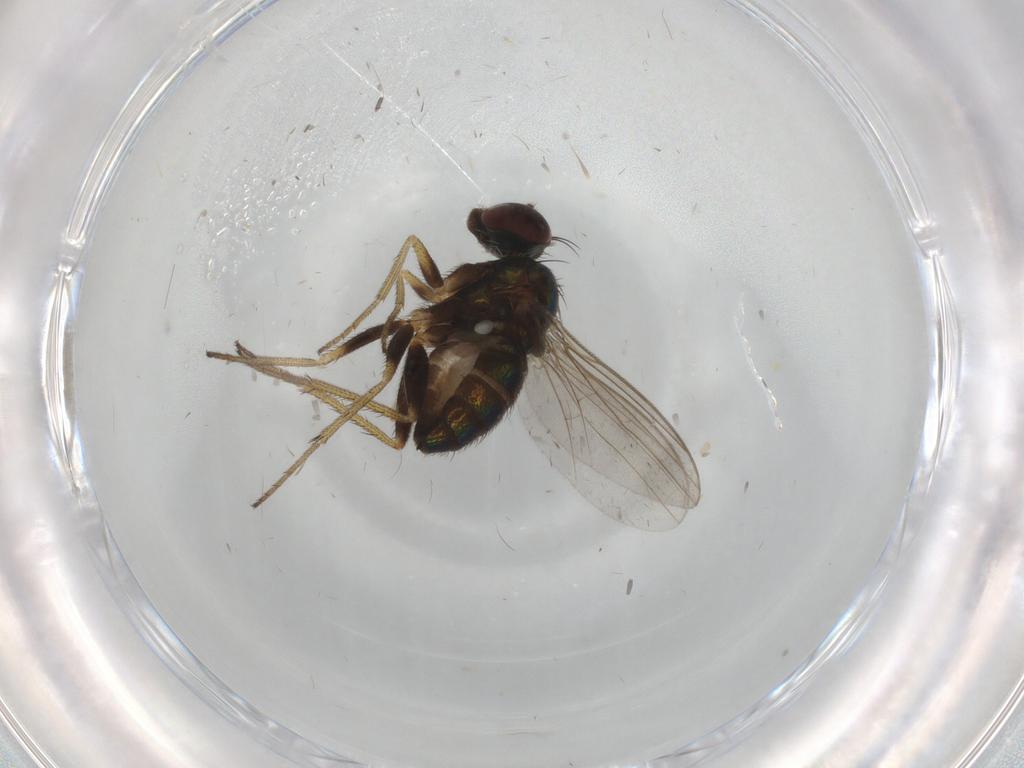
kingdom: Animalia
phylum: Arthropoda
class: Insecta
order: Diptera
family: Dolichopodidae
